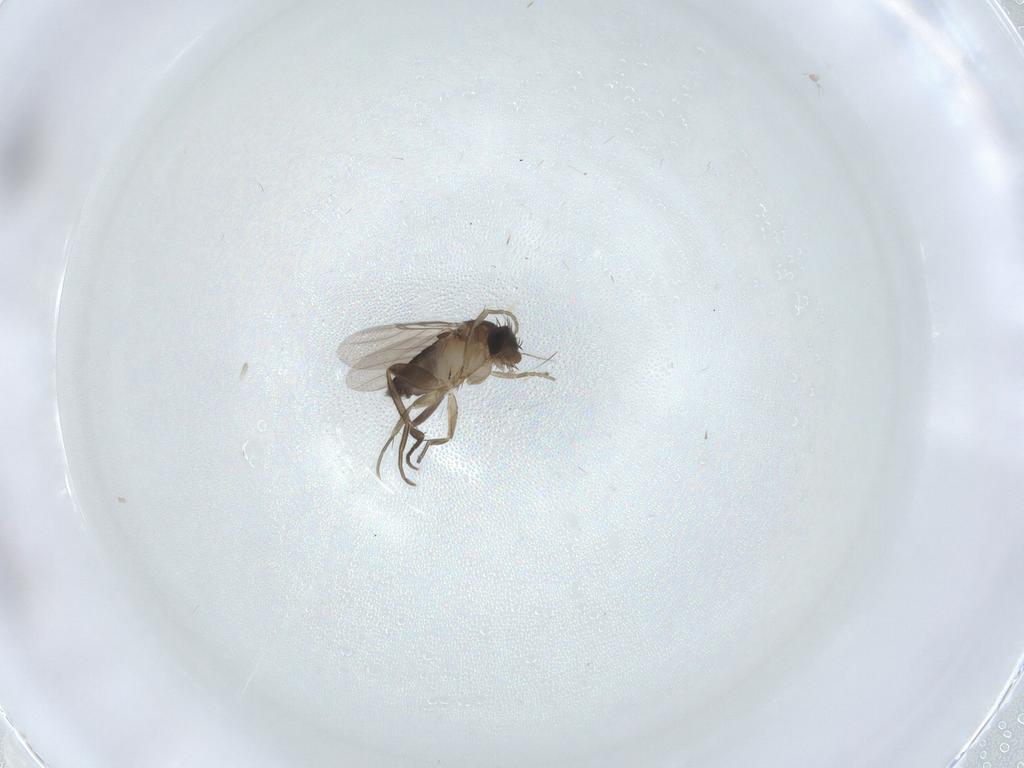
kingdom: Animalia
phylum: Arthropoda
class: Insecta
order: Diptera
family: Phoridae
